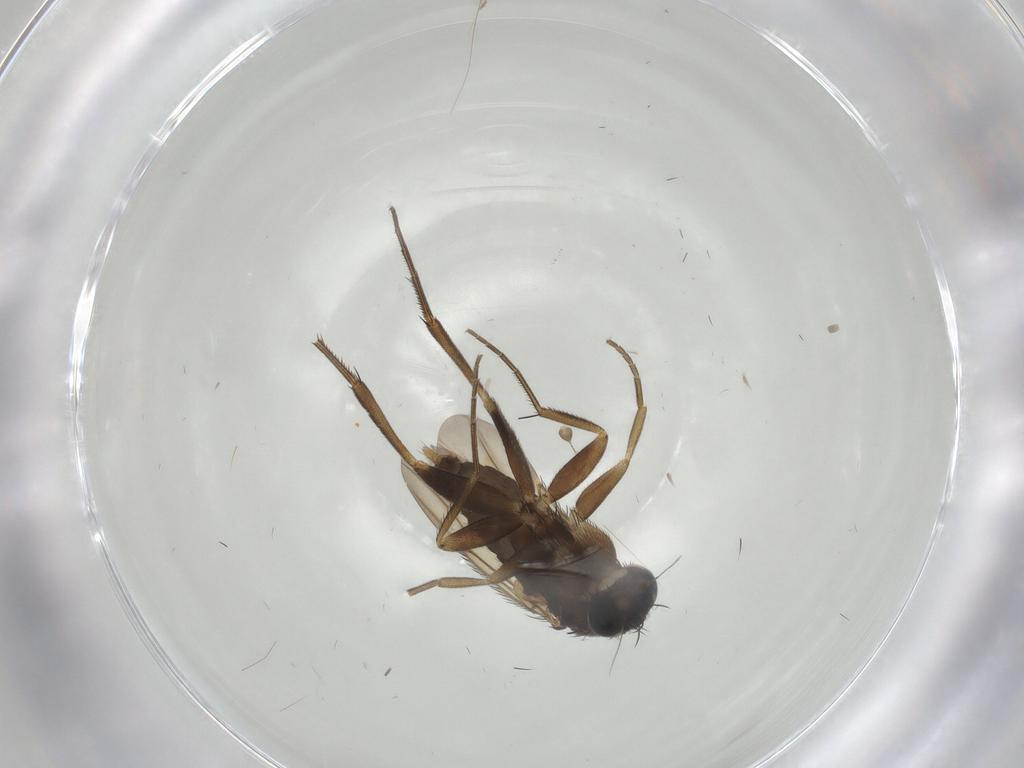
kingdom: Animalia
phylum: Arthropoda
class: Insecta
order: Diptera
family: Phoridae
